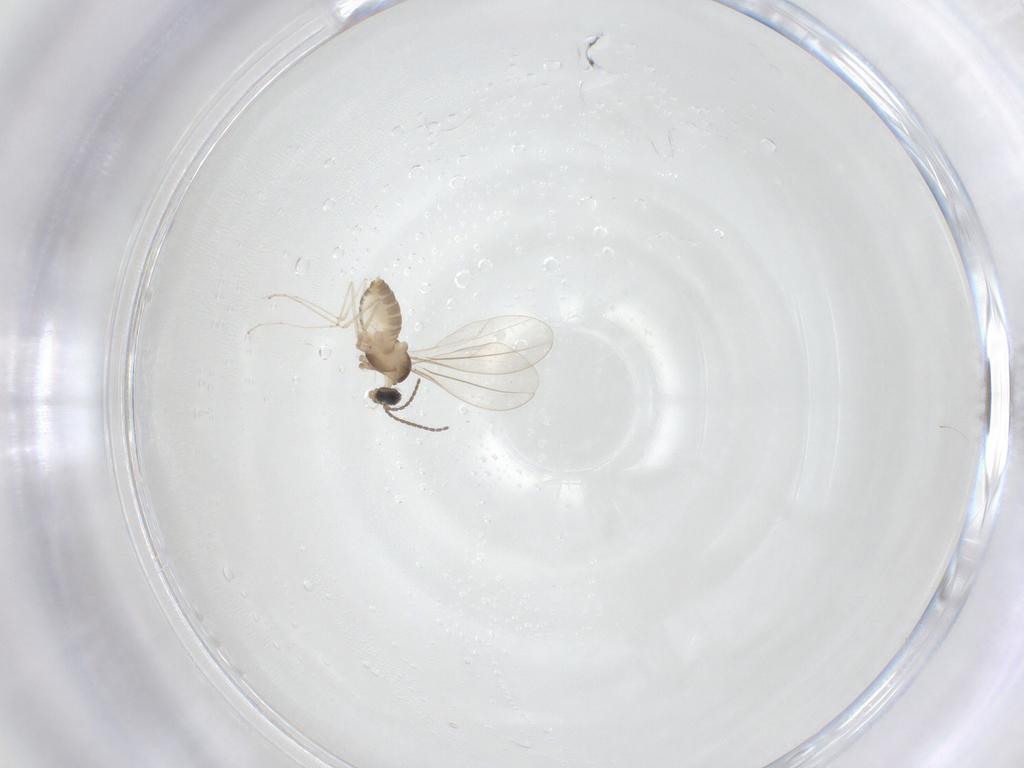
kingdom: Animalia
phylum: Arthropoda
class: Insecta
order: Diptera
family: Cecidomyiidae
